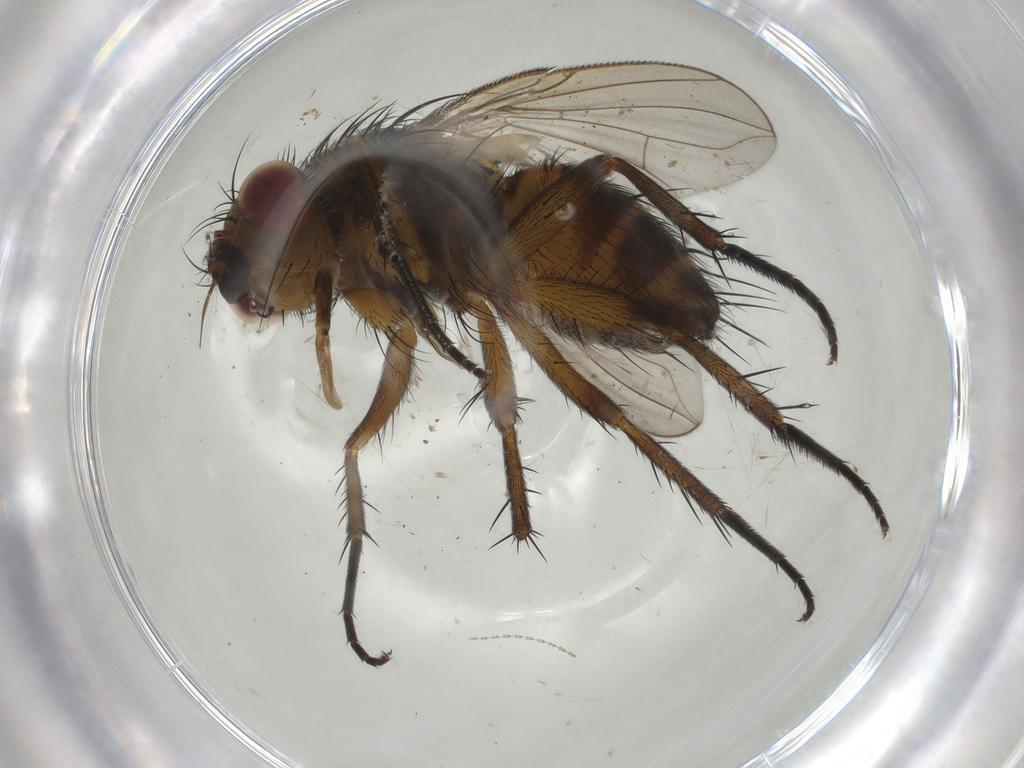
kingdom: Animalia
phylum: Arthropoda
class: Insecta
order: Diptera
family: Tachinidae
